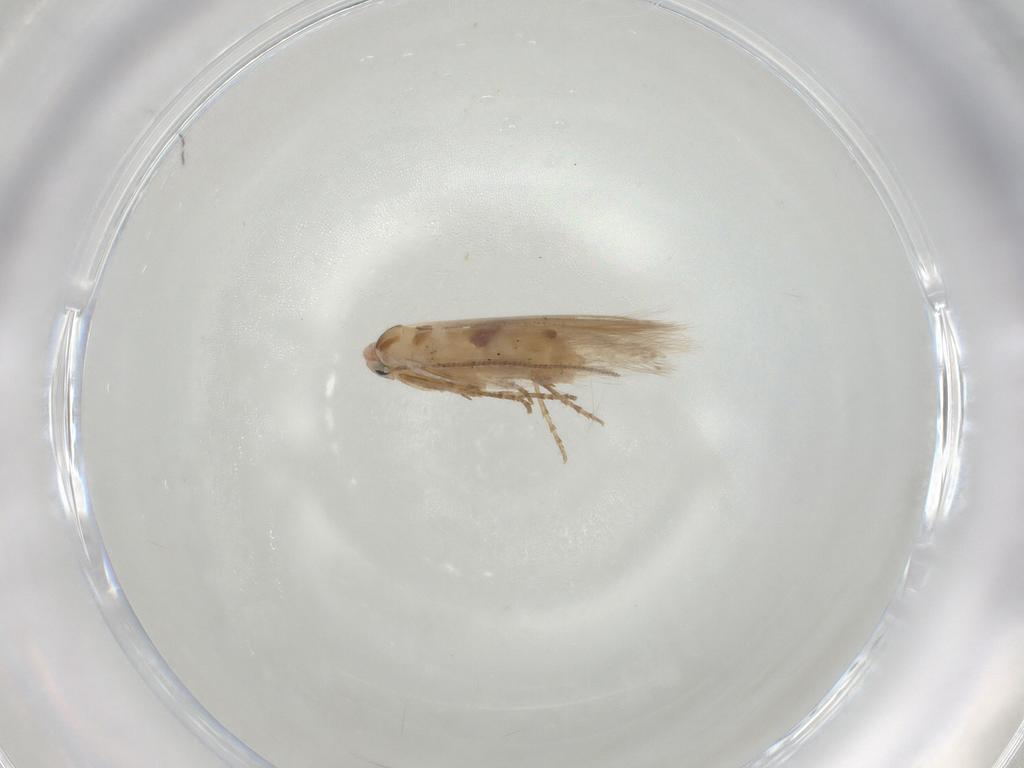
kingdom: Animalia
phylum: Arthropoda
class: Insecta
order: Lepidoptera
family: Bucculatricidae
